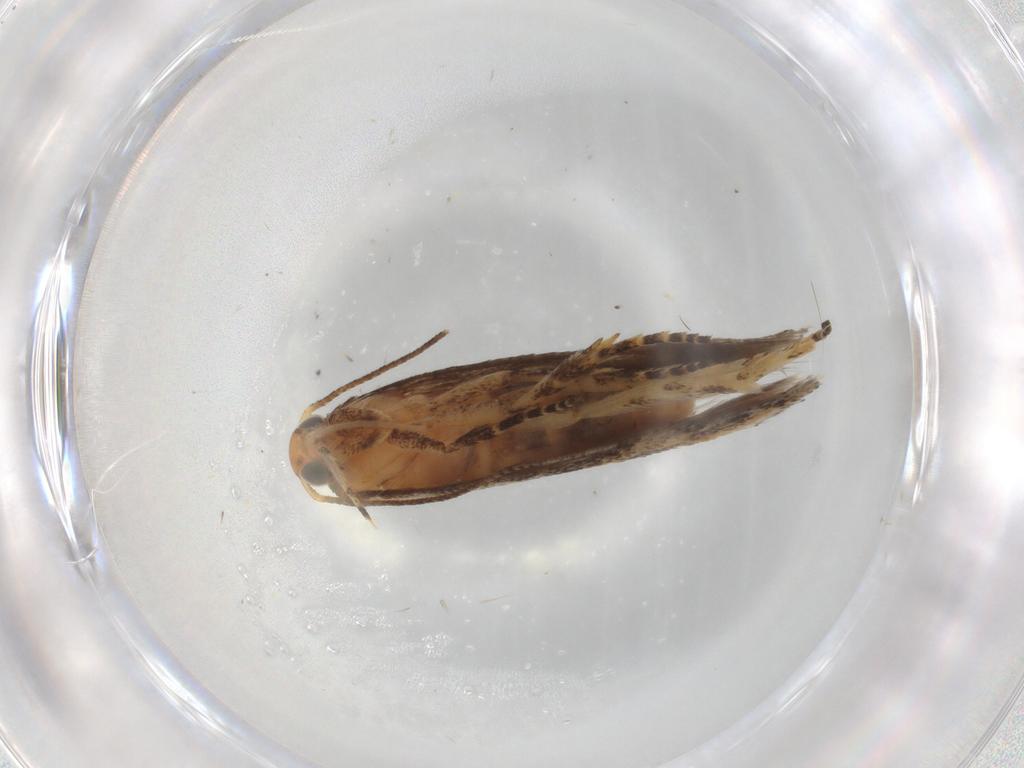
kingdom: Animalia
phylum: Arthropoda
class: Insecta
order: Lepidoptera
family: Gelechiidae
